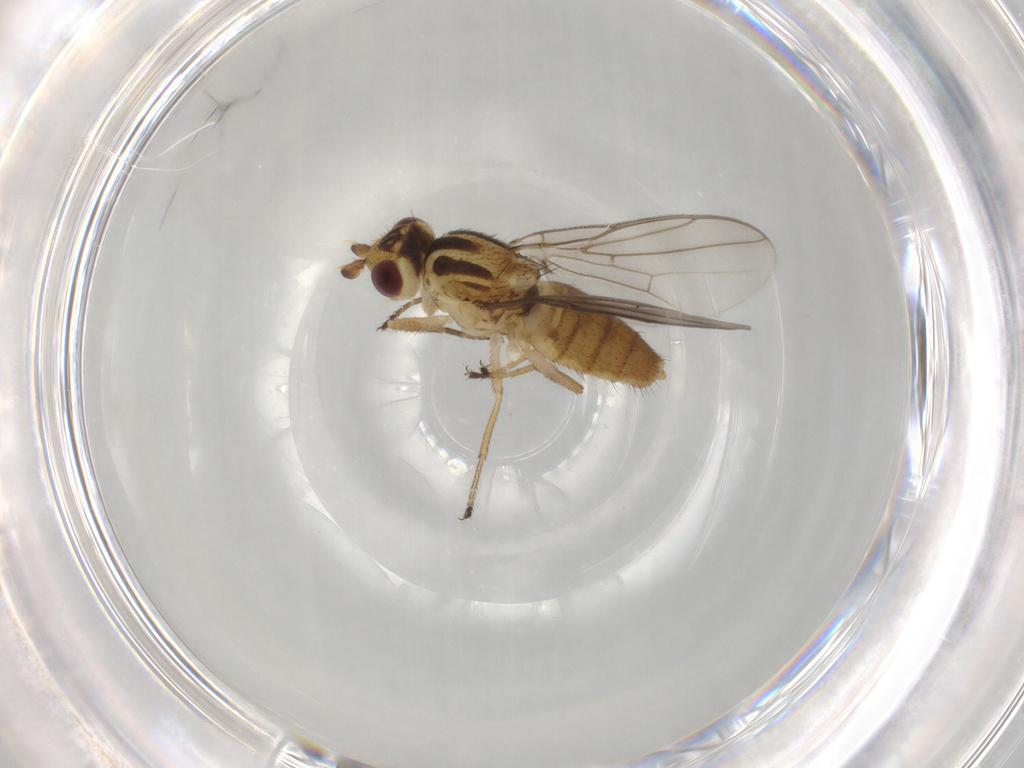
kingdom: Animalia
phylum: Arthropoda
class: Insecta
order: Diptera
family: Chloropidae
